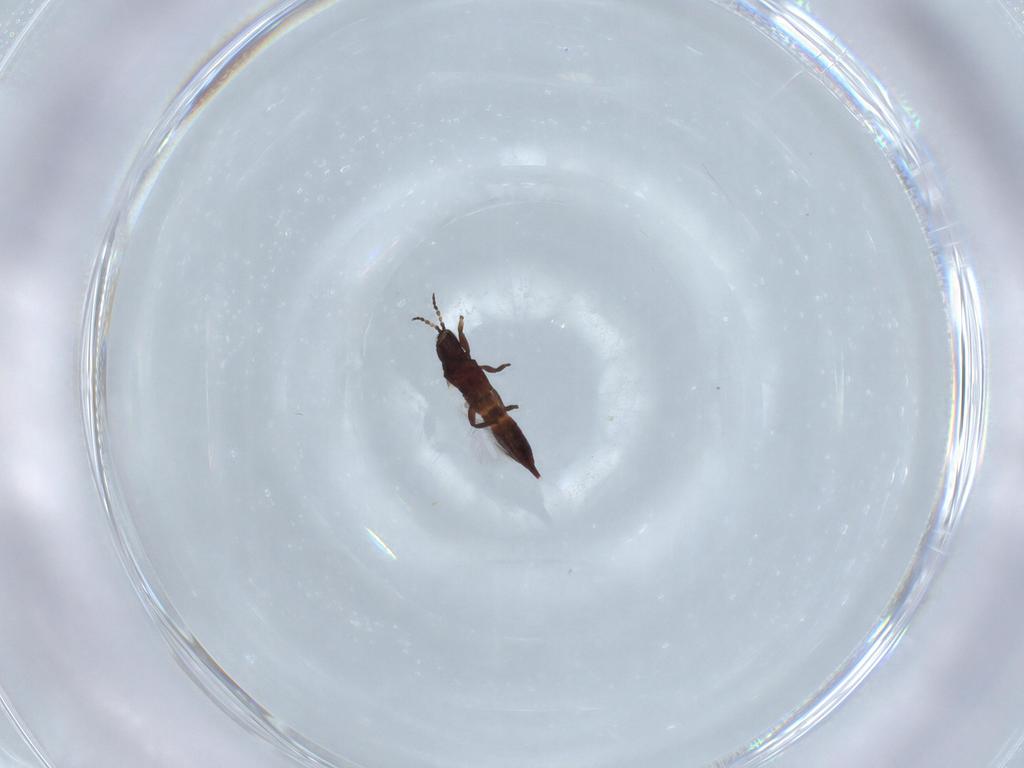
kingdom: Animalia
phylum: Arthropoda
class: Insecta
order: Thysanoptera
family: Phlaeothripidae
